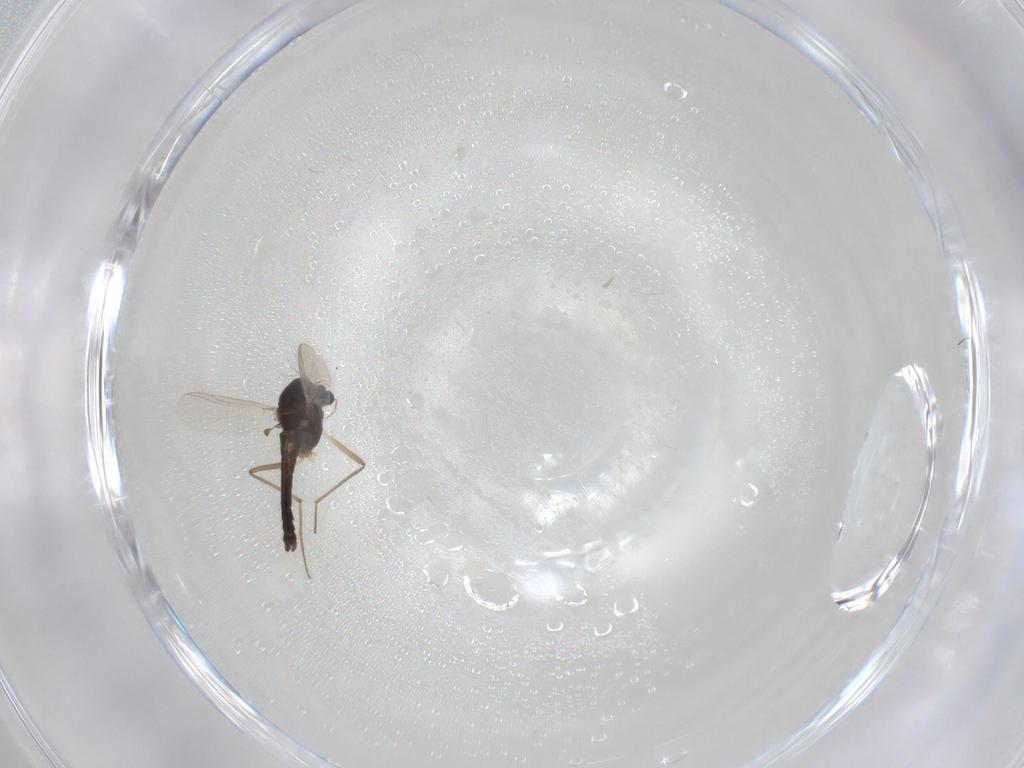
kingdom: Animalia
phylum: Arthropoda
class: Insecta
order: Diptera
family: Chironomidae
